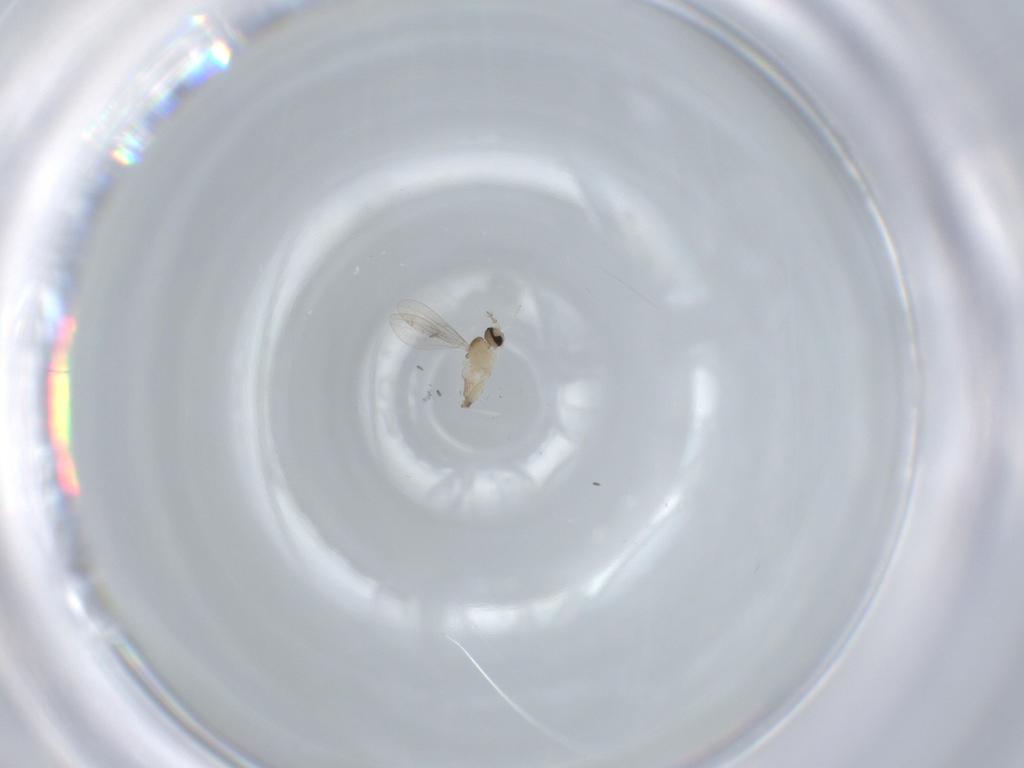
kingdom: Animalia
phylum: Arthropoda
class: Insecta
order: Diptera
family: Cecidomyiidae
